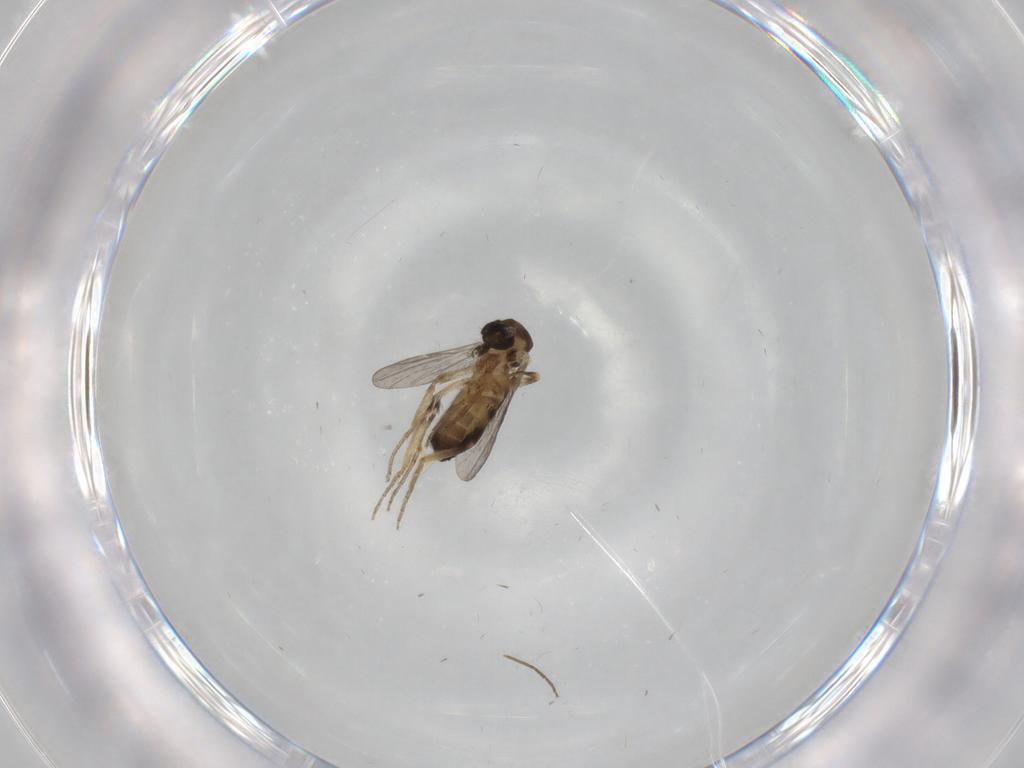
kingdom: Animalia
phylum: Arthropoda
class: Insecta
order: Diptera
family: Ceratopogonidae
